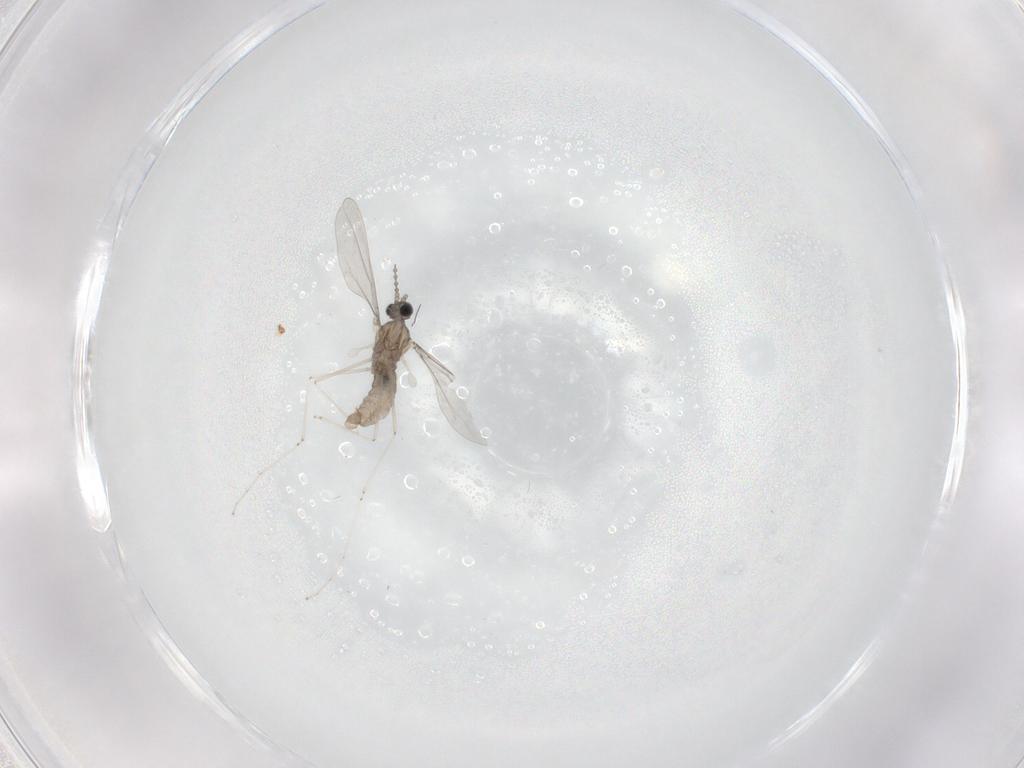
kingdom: Animalia
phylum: Arthropoda
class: Insecta
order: Diptera
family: Cecidomyiidae
